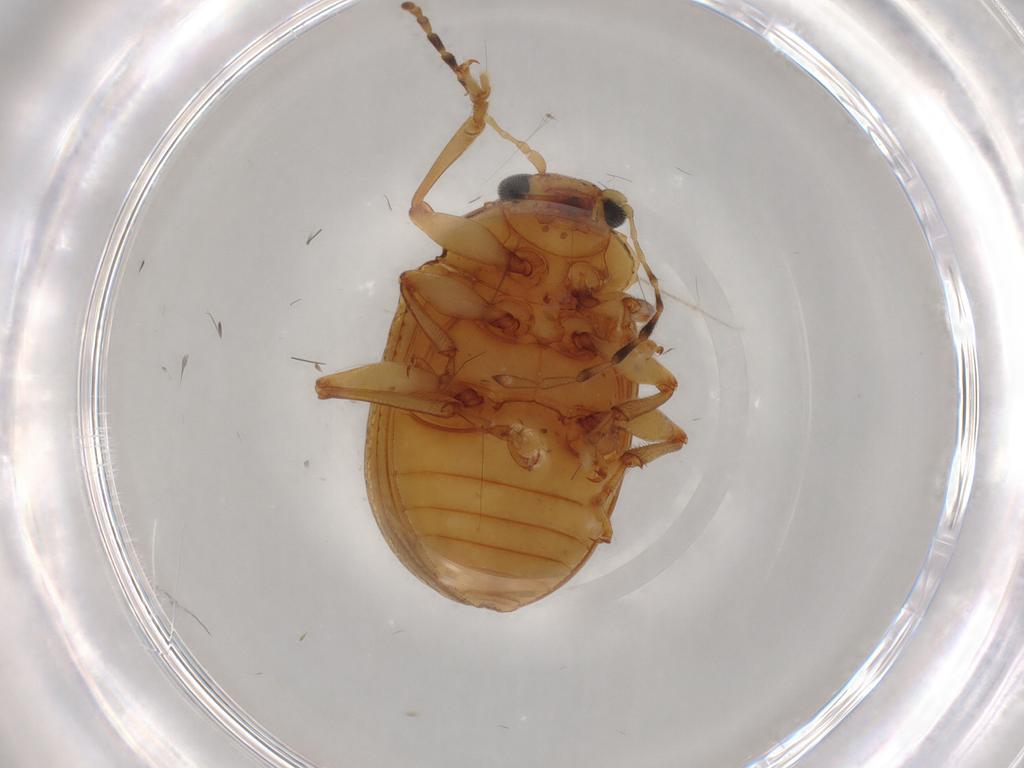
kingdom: Animalia
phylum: Arthropoda
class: Insecta
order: Coleoptera
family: Chrysomelidae
